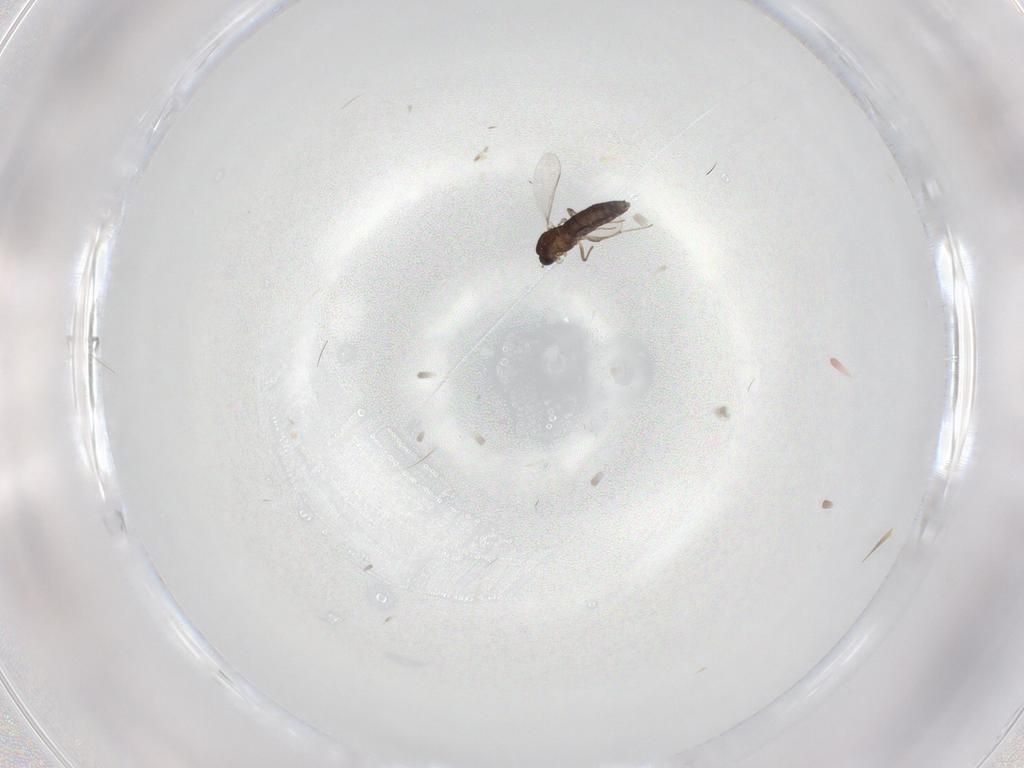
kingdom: Animalia
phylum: Arthropoda
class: Insecta
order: Diptera
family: Chironomidae
